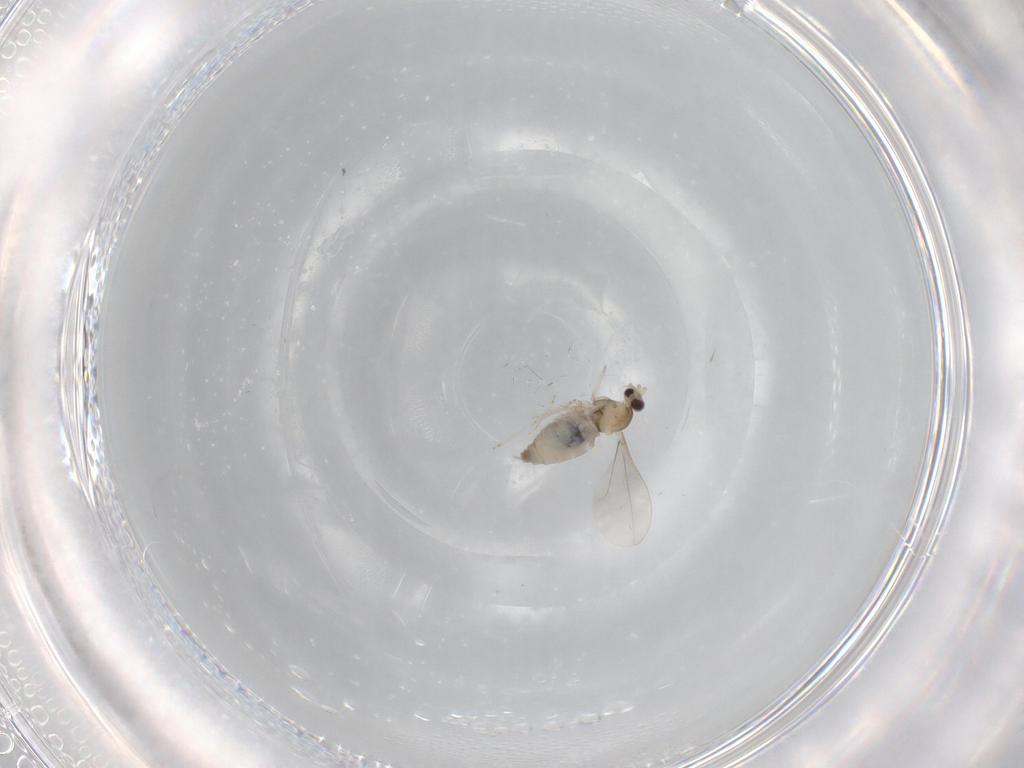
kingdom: Animalia
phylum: Arthropoda
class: Insecta
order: Diptera
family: Cecidomyiidae
